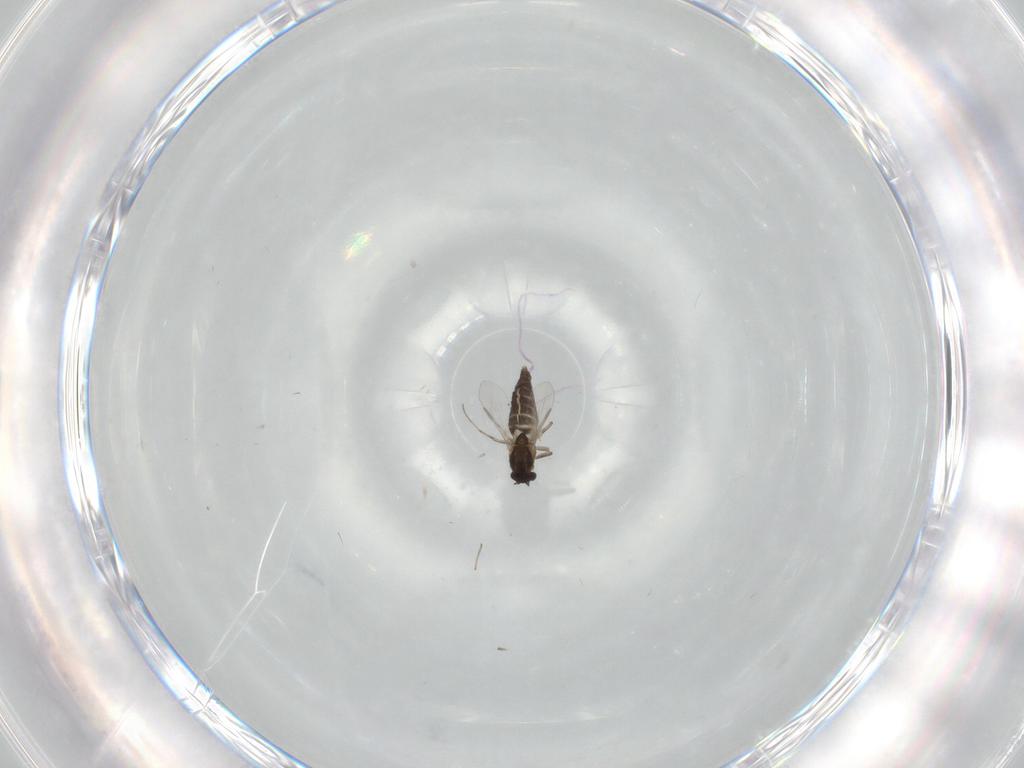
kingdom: Animalia
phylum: Arthropoda
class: Insecta
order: Diptera
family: Chironomidae
